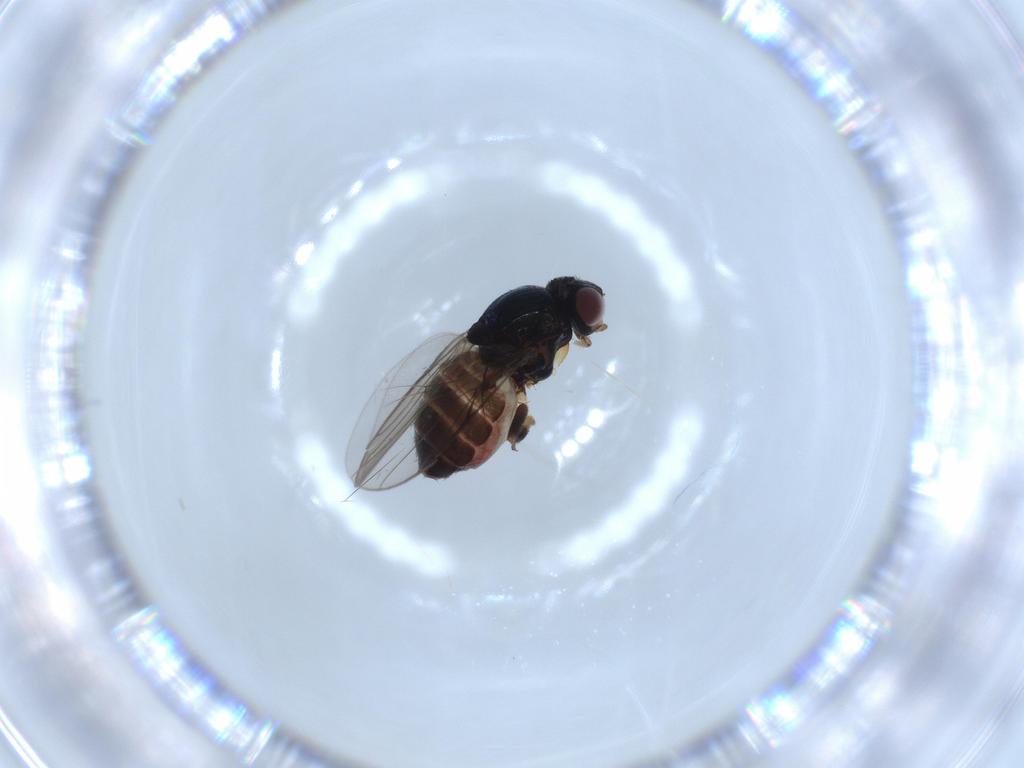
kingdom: Animalia
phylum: Arthropoda
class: Insecta
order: Diptera
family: Chloropidae
